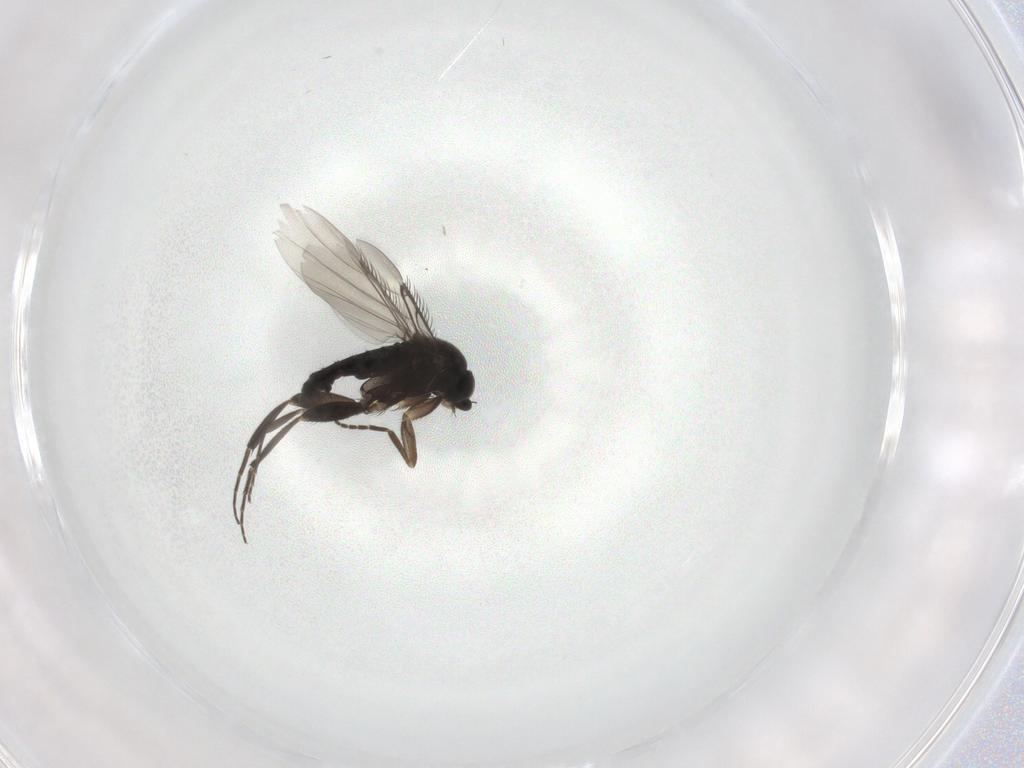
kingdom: Animalia
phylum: Arthropoda
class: Insecta
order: Diptera
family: Phoridae
